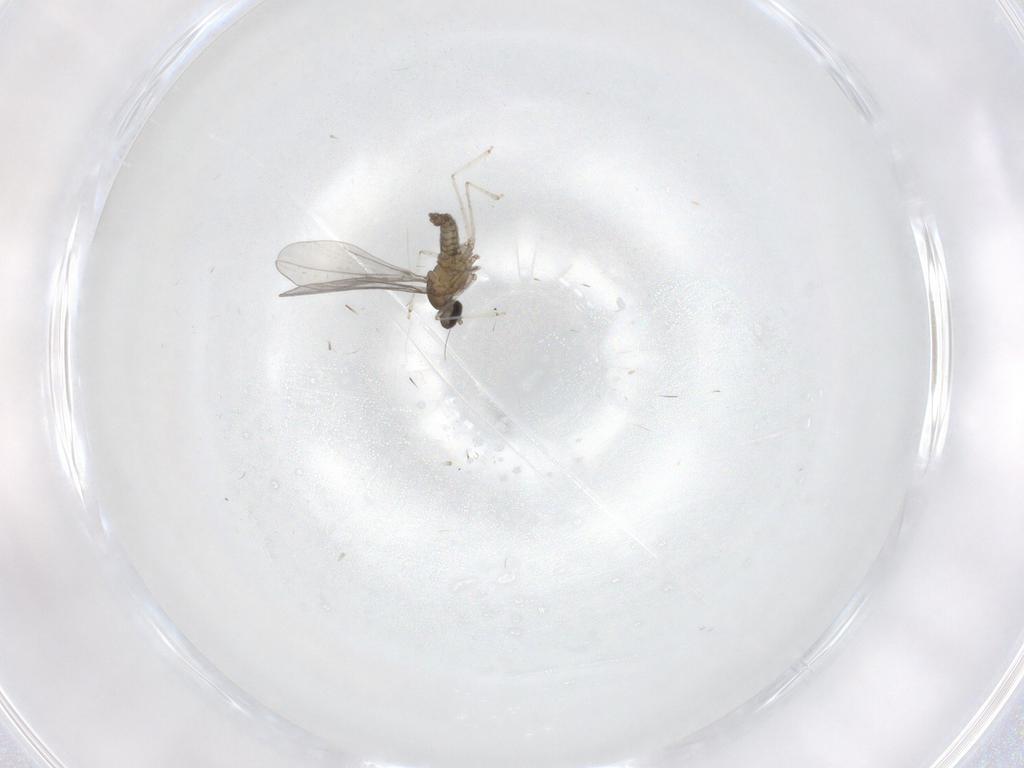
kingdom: Animalia
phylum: Arthropoda
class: Insecta
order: Diptera
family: Cecidomyiidae
